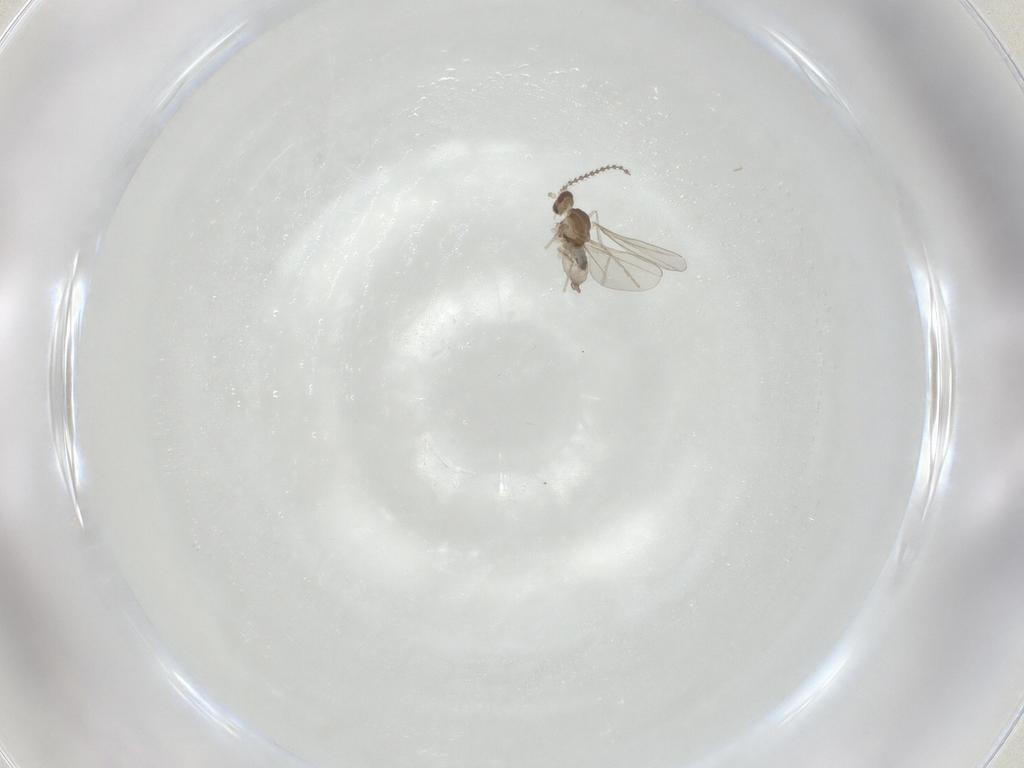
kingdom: Animalia
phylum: Arthropoda
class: Insecta
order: Diptera
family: Cecidomyiidae
